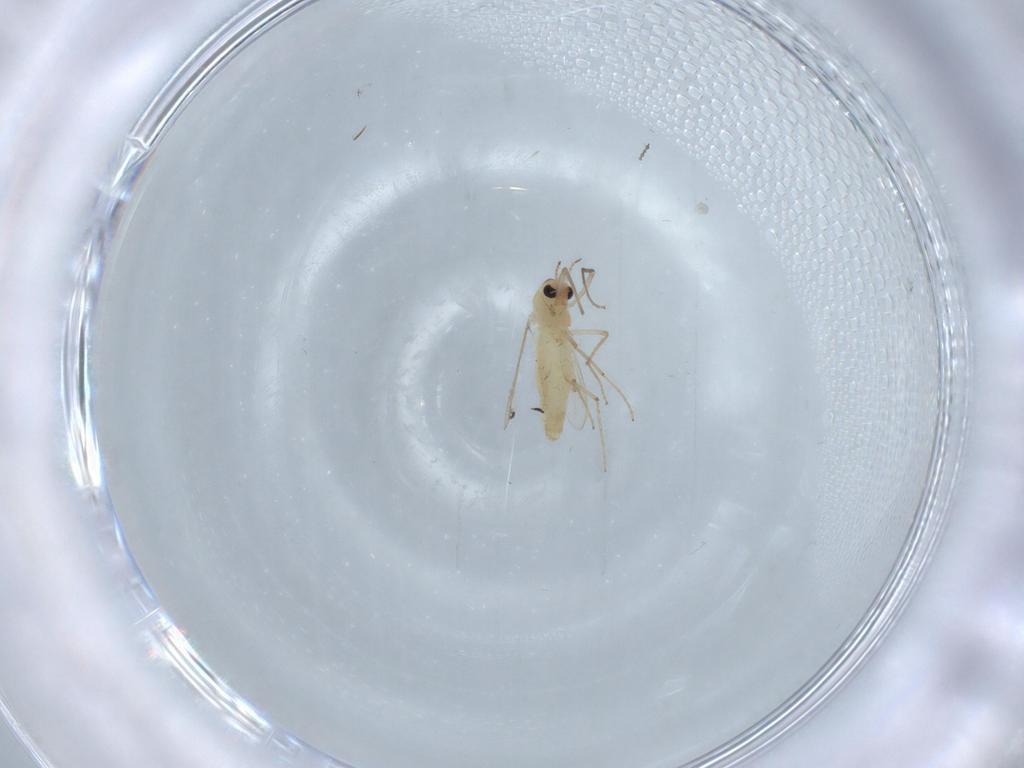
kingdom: Animalia
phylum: Arthropoda
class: Insecta
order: Diptera
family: Chironomidae
